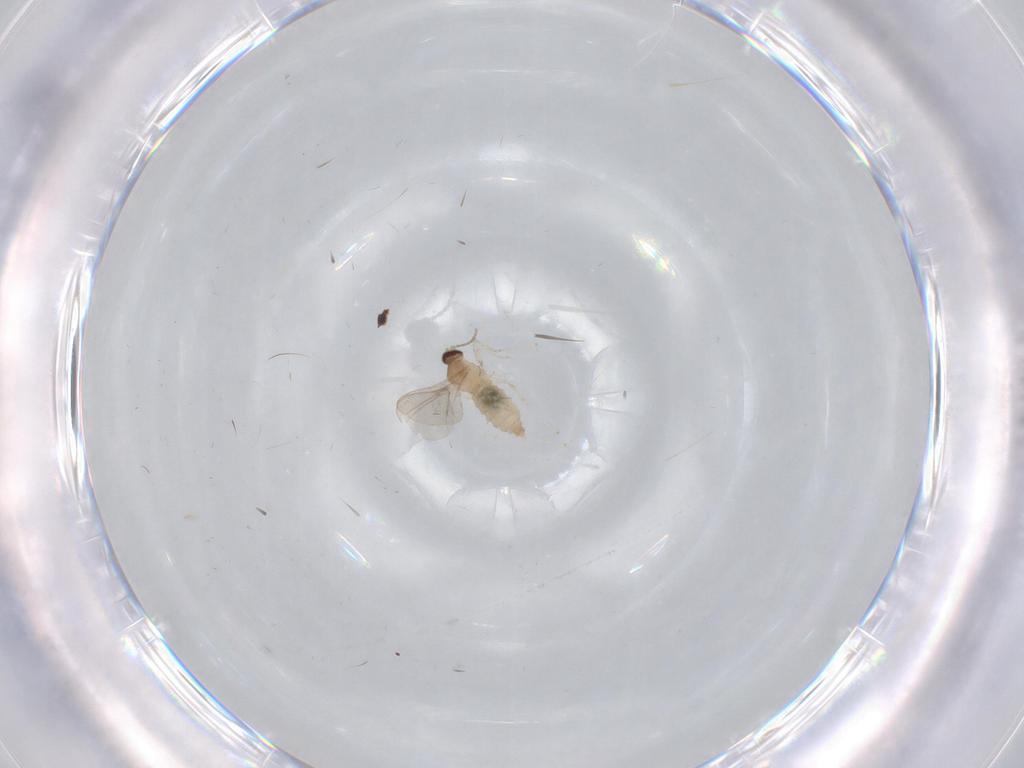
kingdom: Animalia
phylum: Arthropoda
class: Insecta
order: Diptera
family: Cecidomyiidae
